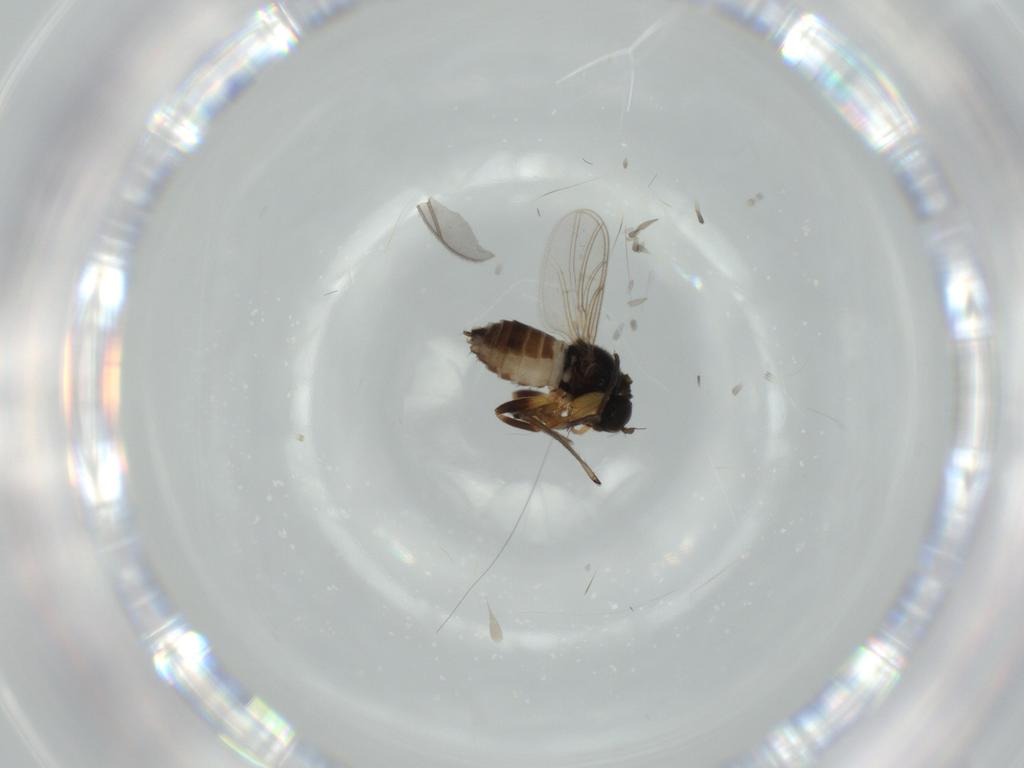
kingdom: Animalia
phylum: Arthropoda
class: Insecta
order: Diptera
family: Hybotidae
